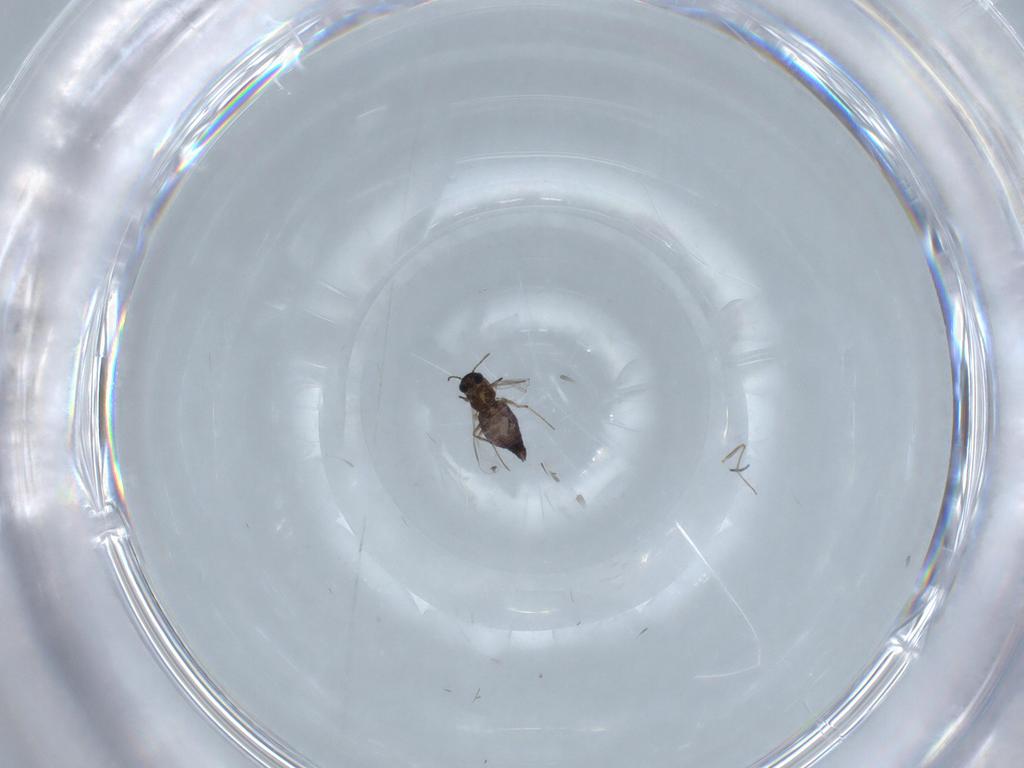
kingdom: Animalia
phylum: Arthropoda
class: Insecta
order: Diptera
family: Chironomidae
